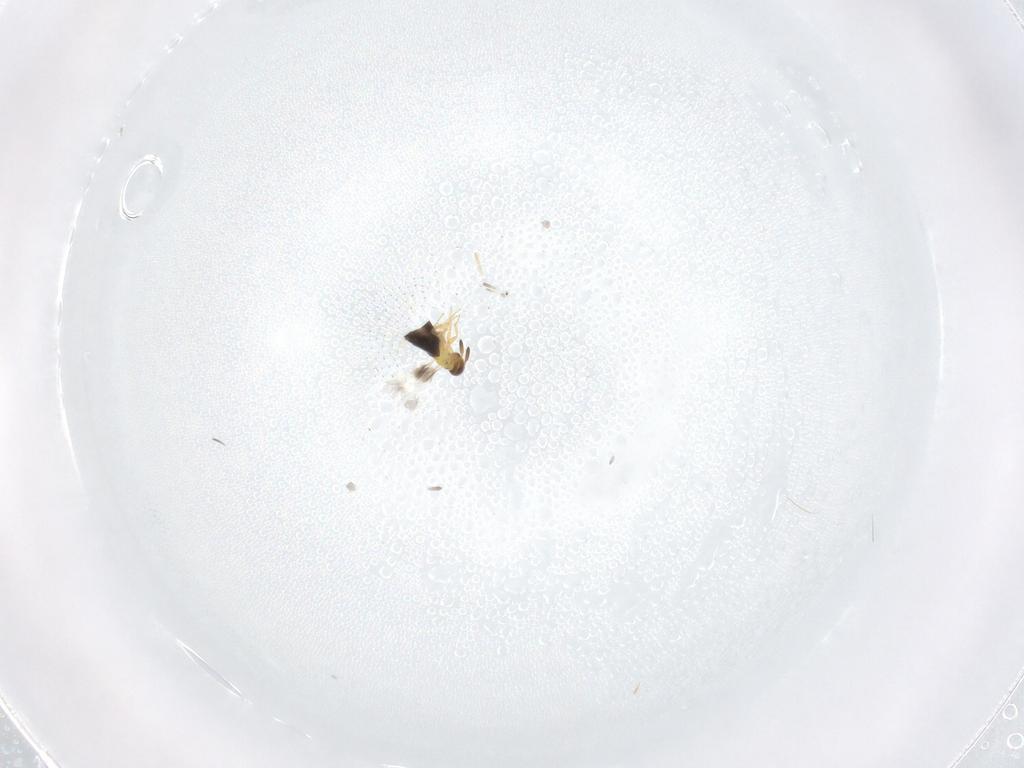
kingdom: Animalia
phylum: Arthropoda
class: Insecta
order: Hymenoptera
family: Signiphoridae
